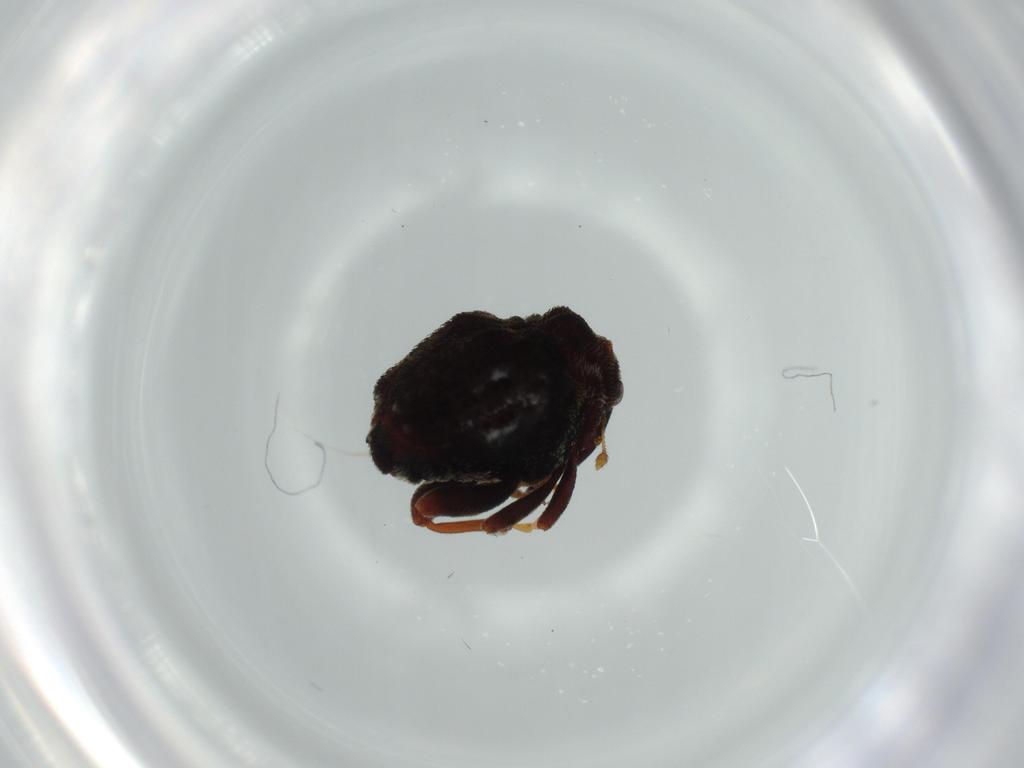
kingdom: Animalia
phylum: Arthropoda
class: Insecta
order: Coleoptera
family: Curculionidae
